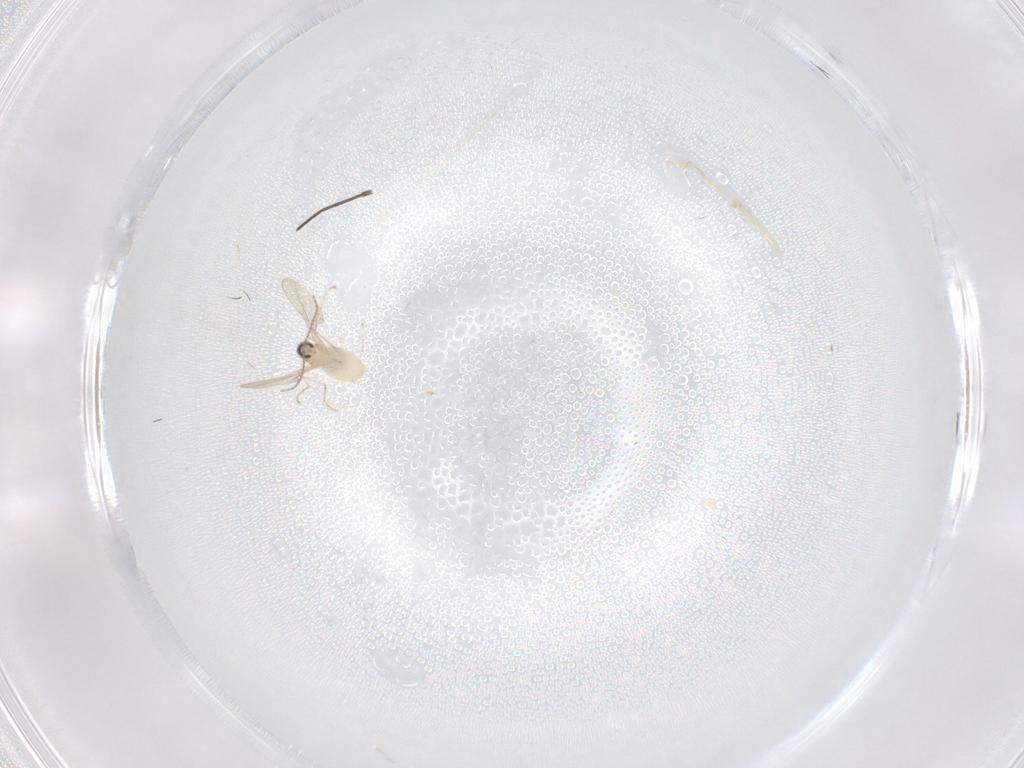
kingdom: Animalia
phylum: Arthropoda
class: Insecta
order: Diptera
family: Cecidomyiidae
